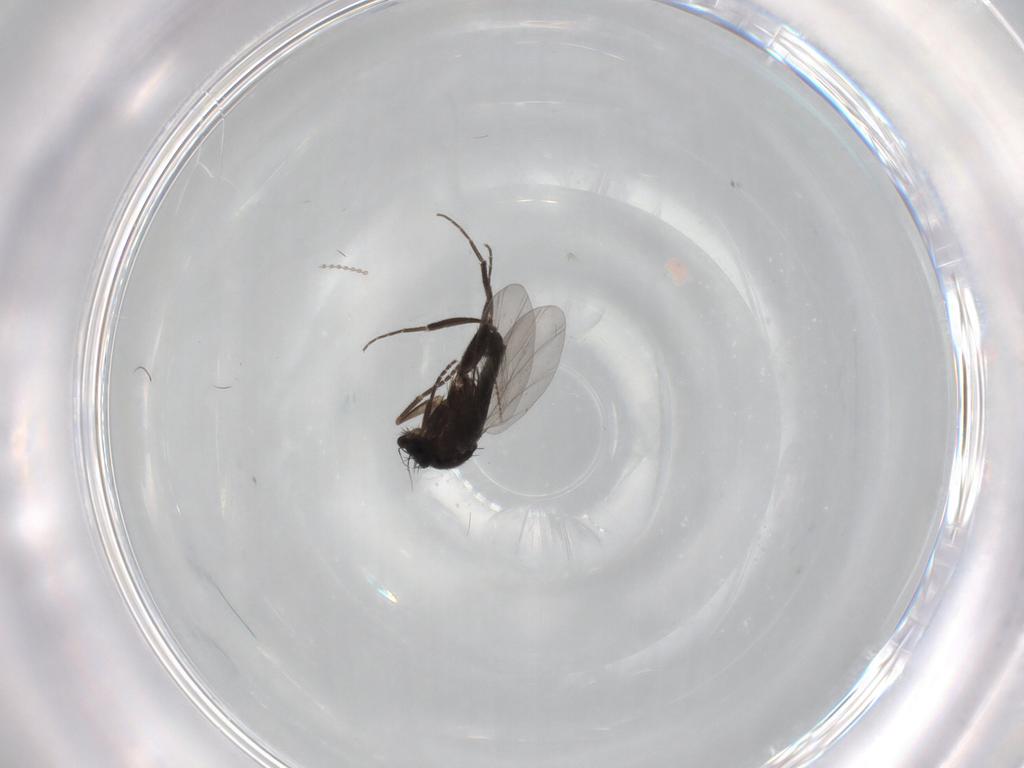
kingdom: Animalia
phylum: Arthropoda
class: Insecta
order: Diptera
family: Phoridae
